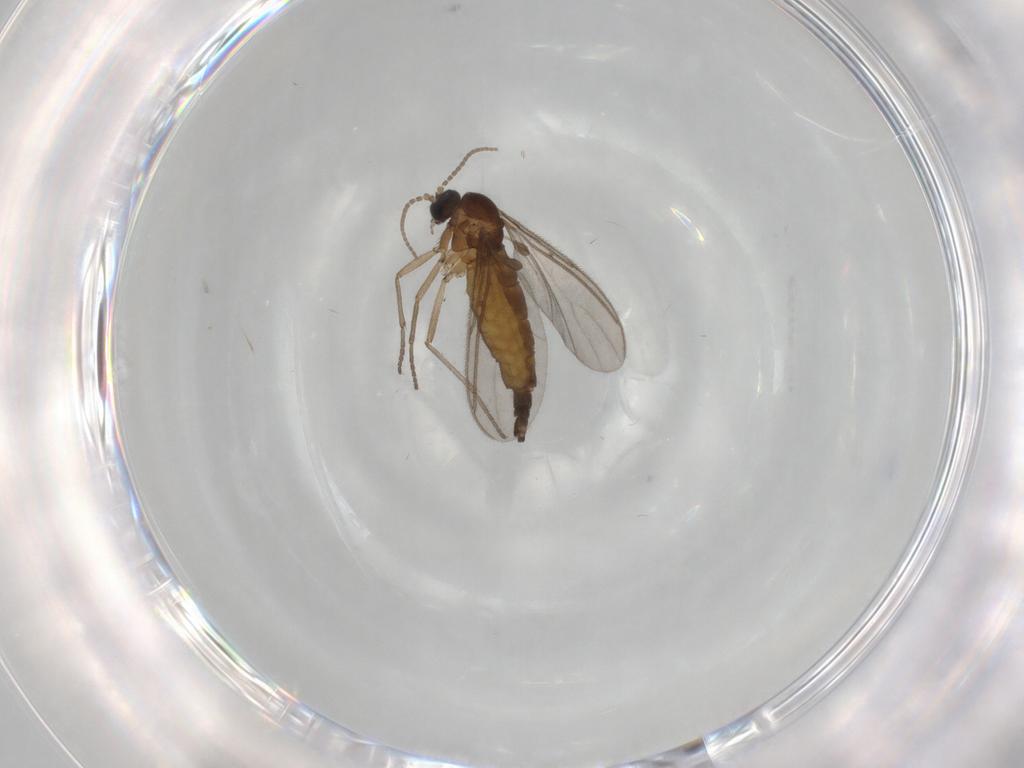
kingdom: Animalia
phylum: Arthropoda
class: Insecta
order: Diptera
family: Sciaridae
